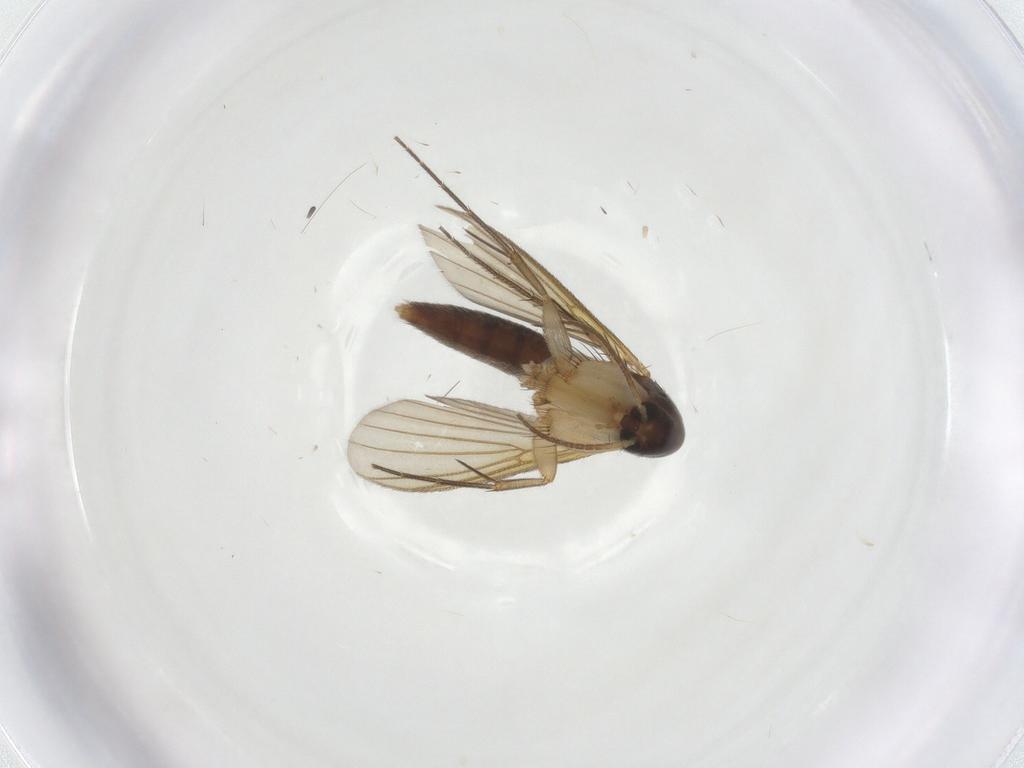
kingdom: Animalia
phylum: Arthropoda
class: Insecta
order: Diptera
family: Mycetophilidae
